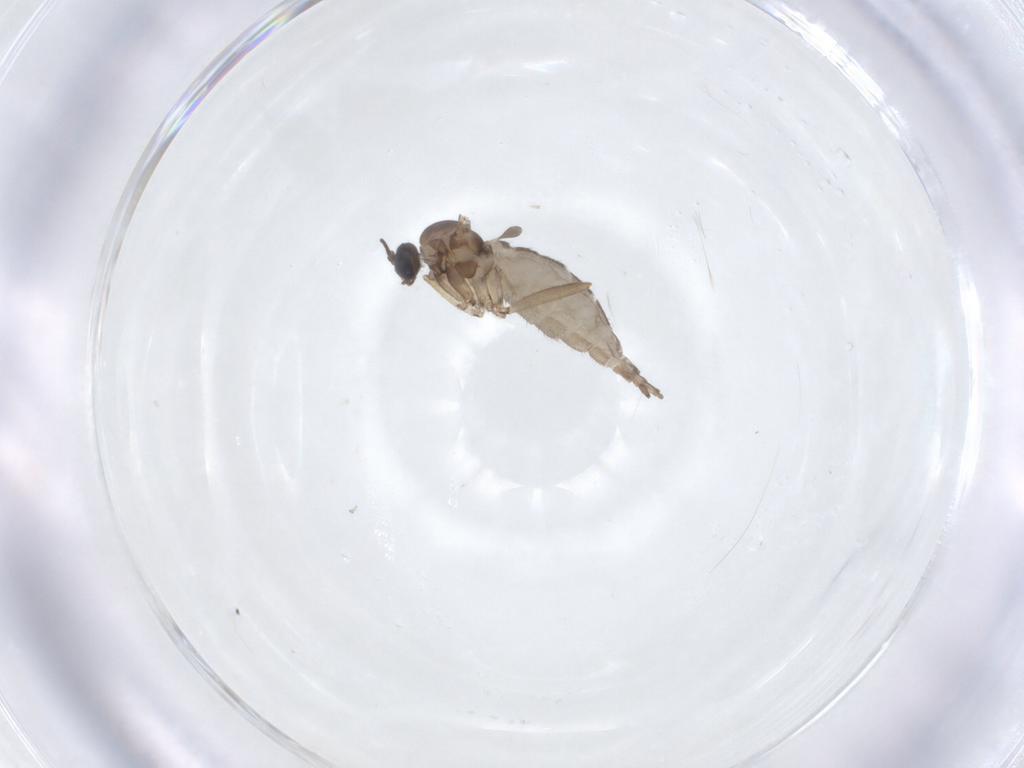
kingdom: Animalia
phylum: Arthropoda
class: Insecta
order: Diptera
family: Sciaridae
